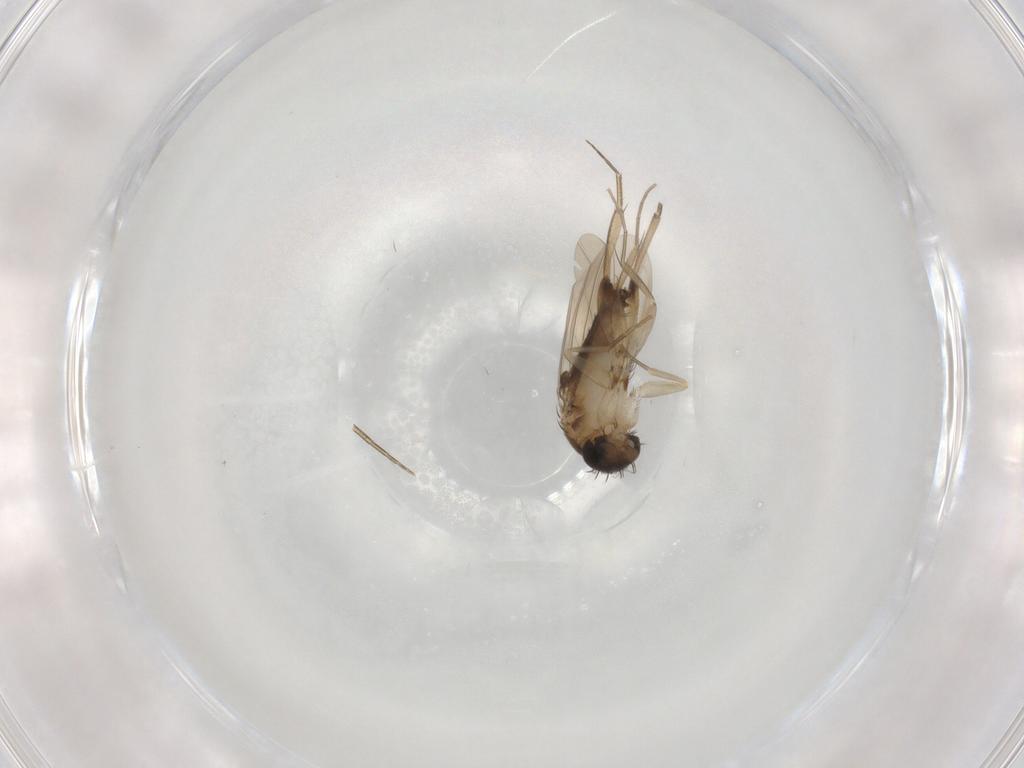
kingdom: Animalia
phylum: Arthropoda
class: Insecta
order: Diptera
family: Phoridae
